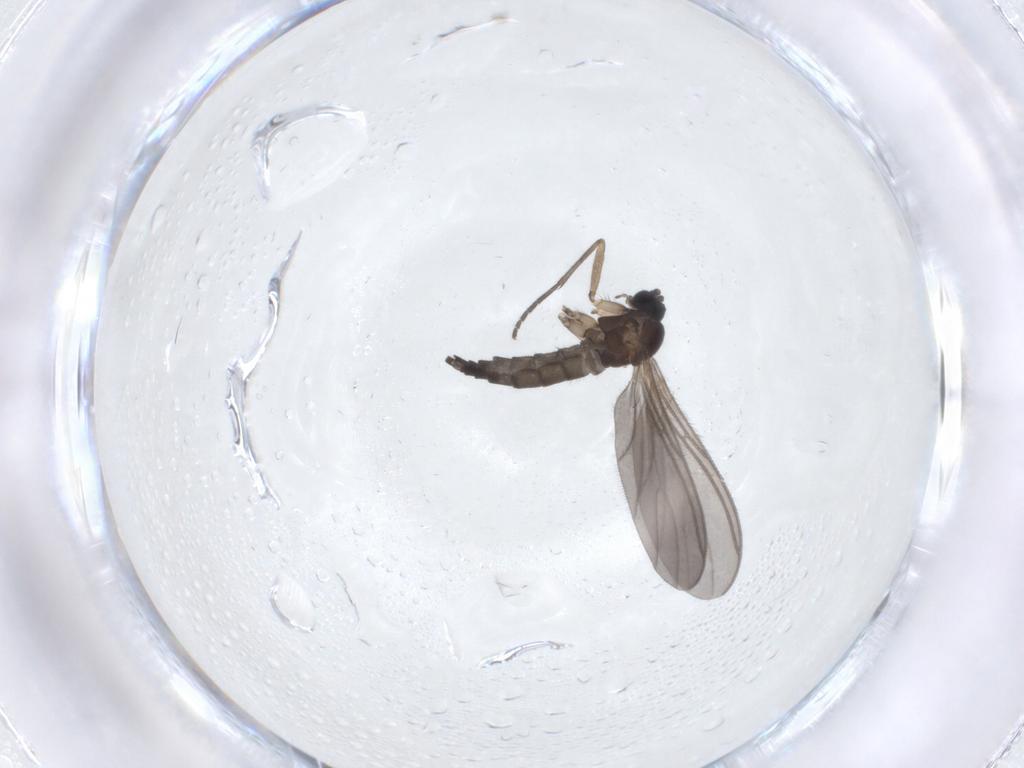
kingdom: Animalia
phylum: Arthropoda
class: Insecta
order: Diptera
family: Sciaridae
